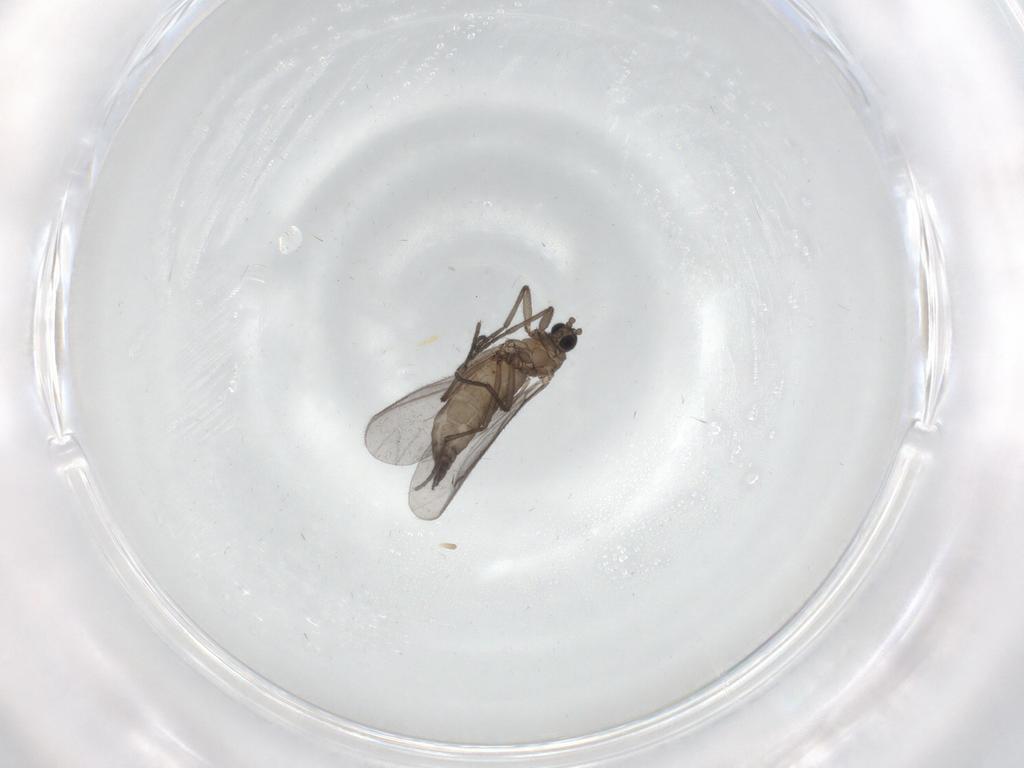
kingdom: Animalia
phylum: Arthropoda
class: Insecta
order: Diptera
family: Sciaridae
